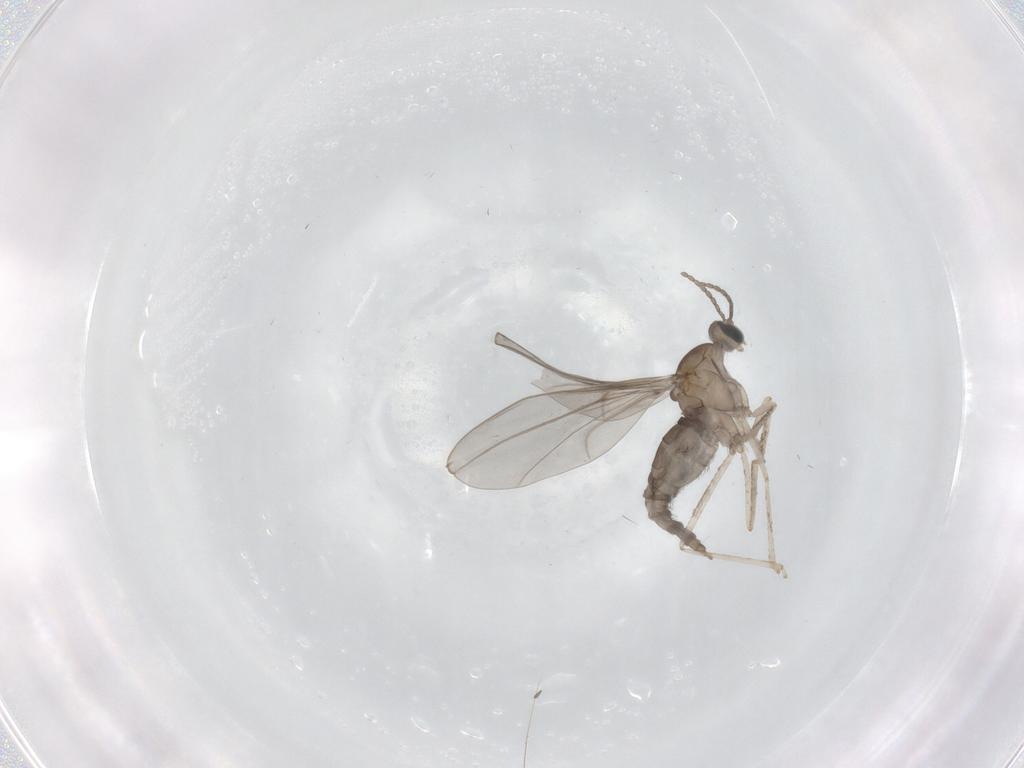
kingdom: Animalia
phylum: Arthropoda
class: Insecta
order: Diptera
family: Cecidomyiidae
